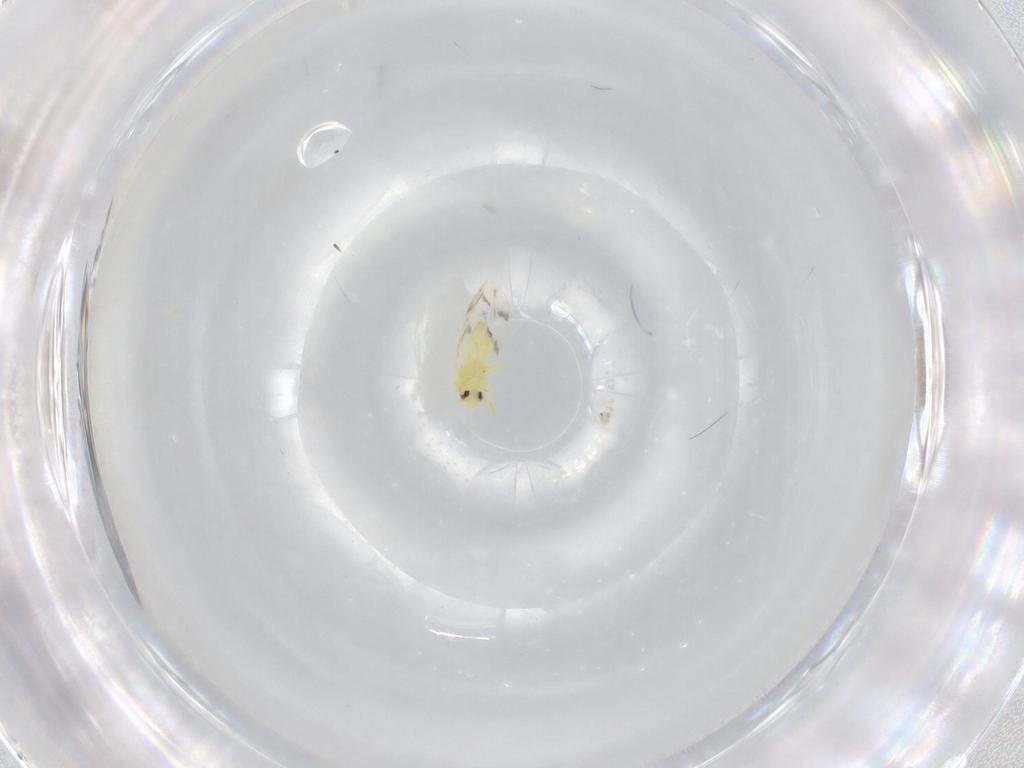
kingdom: Animalia
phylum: Arthropoda
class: Insecta
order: Hemiptera
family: Aleyrodidae
